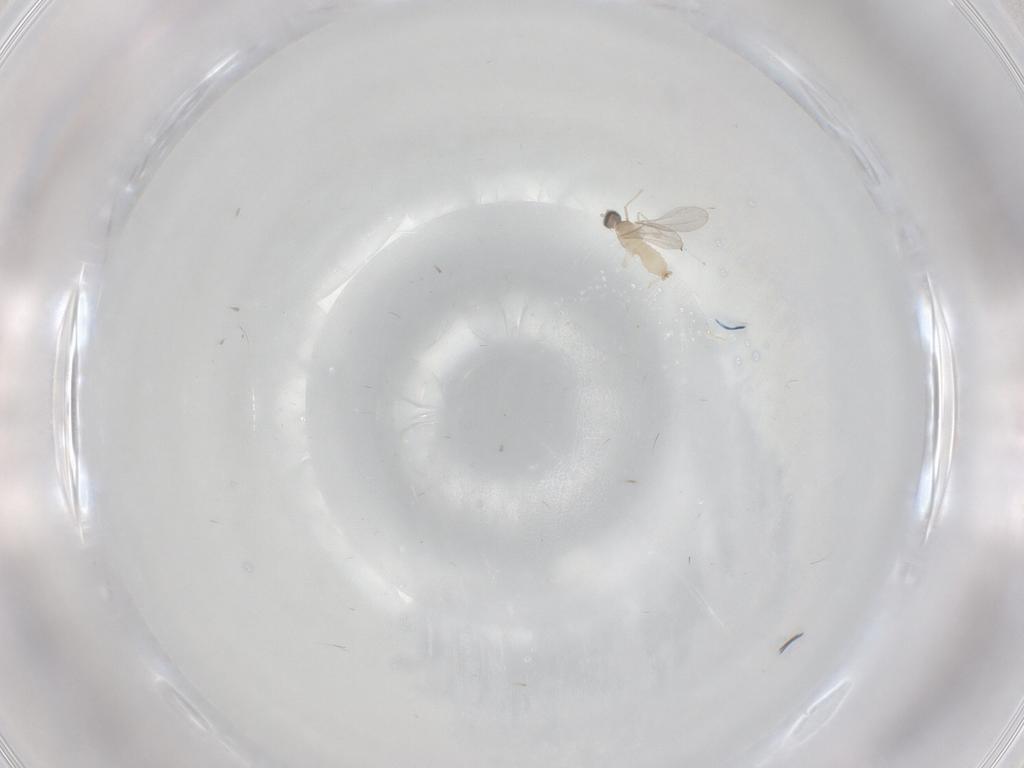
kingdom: Animalia
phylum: Arthropoda
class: Insecta
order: Diptera
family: Cecidomyiidae
